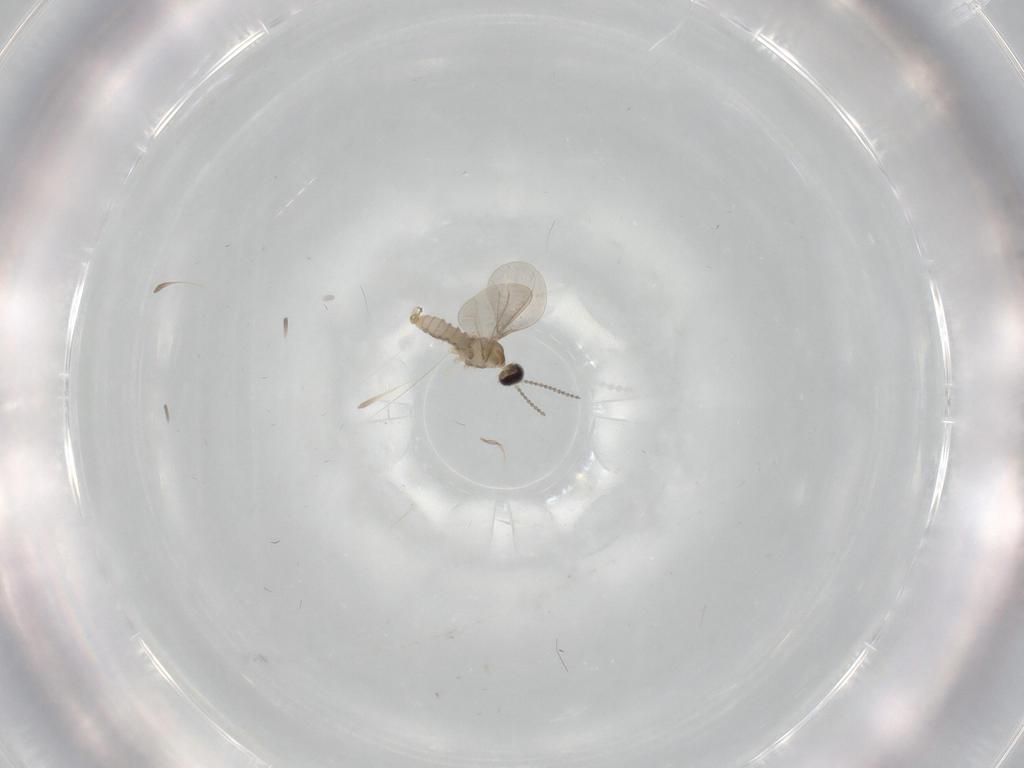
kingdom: Animalia
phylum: Arthropoda
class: Insecta
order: Diptera
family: Cecidomyiidae
